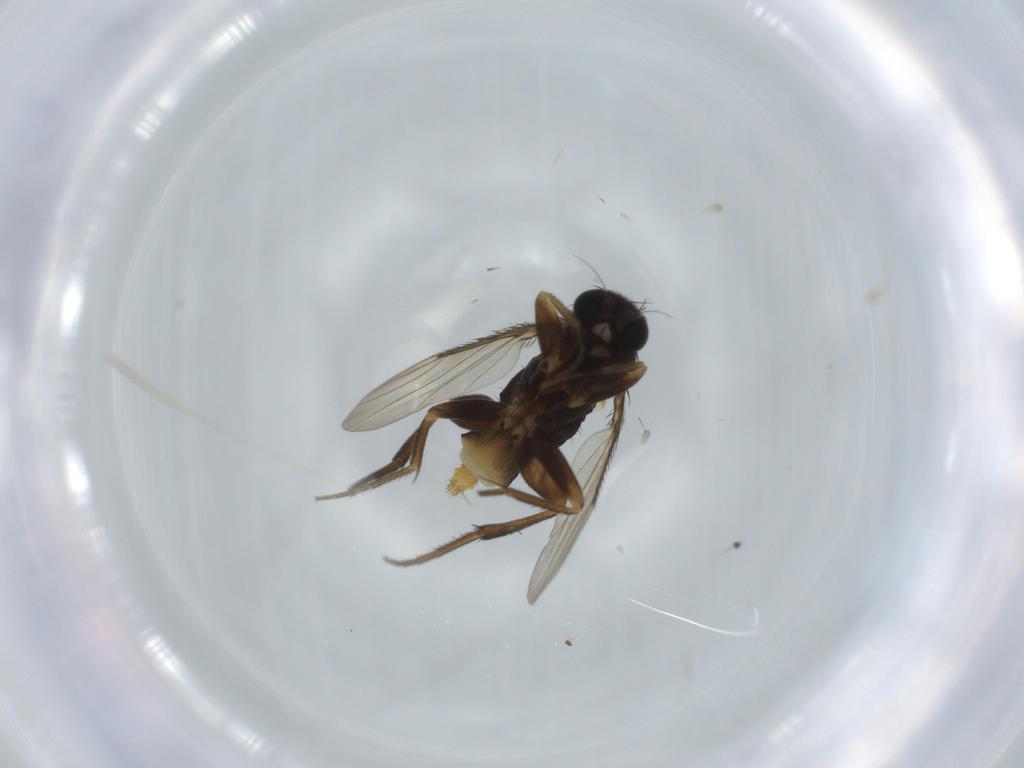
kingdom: Animalia
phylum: Arthropoda
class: Insecta
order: Diptera
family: Phoridae
